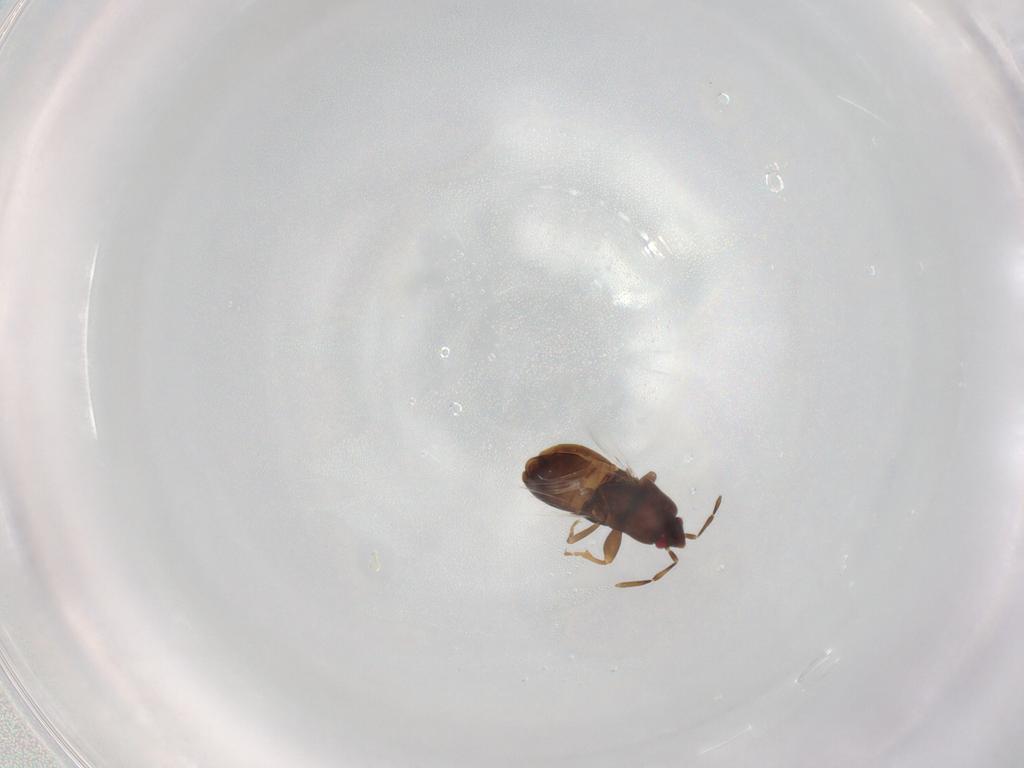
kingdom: Animalia
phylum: Arthropoda
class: Insecta
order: Hemiptera
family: Rhyparochromidae
